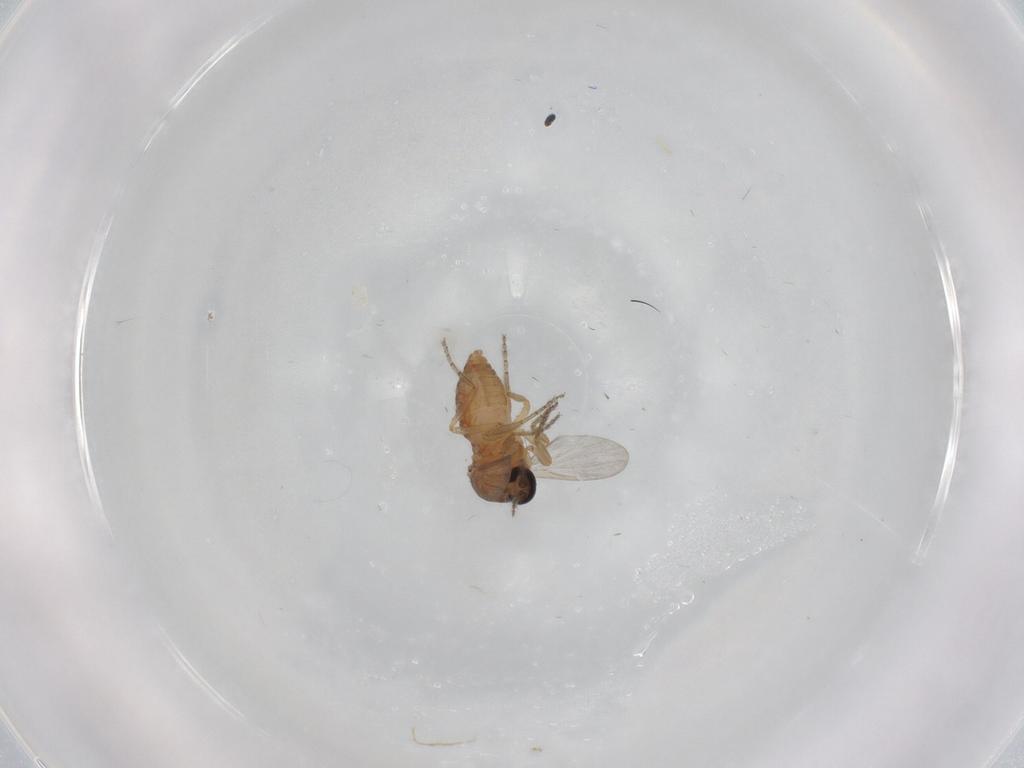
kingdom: Animalia
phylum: Arthropoda
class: Insecta
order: Diptera
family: Ceratopogonidae
